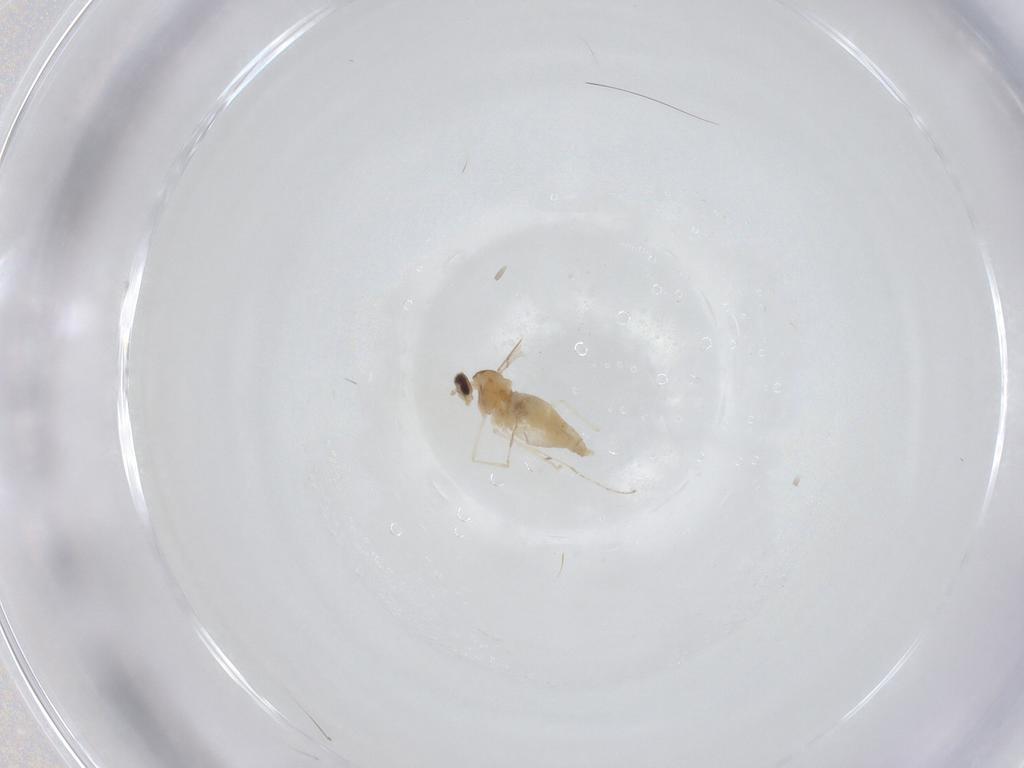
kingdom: Animalia
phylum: Arthropoda
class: Insecta
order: Diptera
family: Cecidomyiidae
